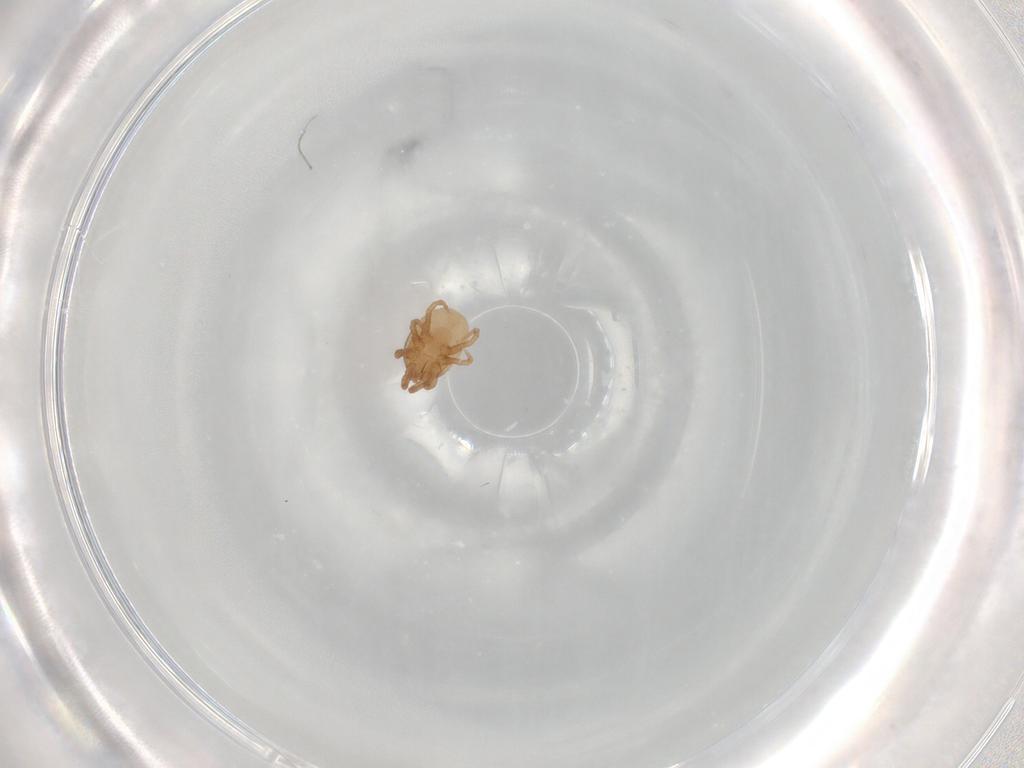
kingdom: Animalia
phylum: Arthropoda
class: Arachnida
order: Mesostigmata
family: Laelapidae
